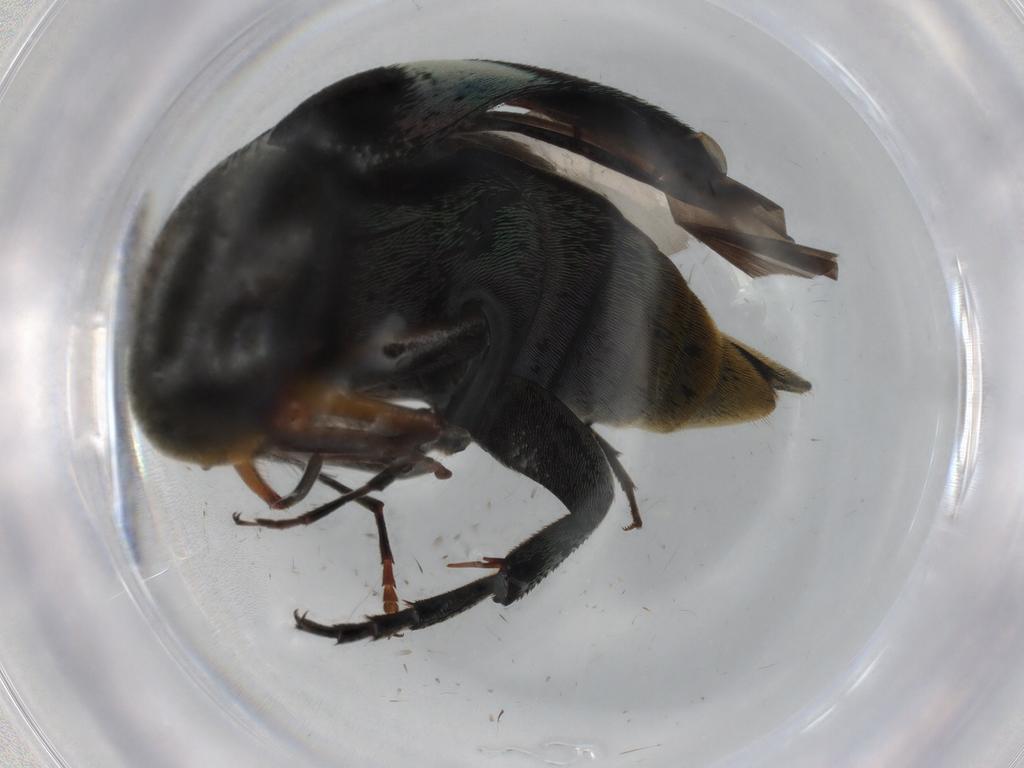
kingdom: Animalia
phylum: Arthropoda
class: Insecta
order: Coleoptera
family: Mordellidae
